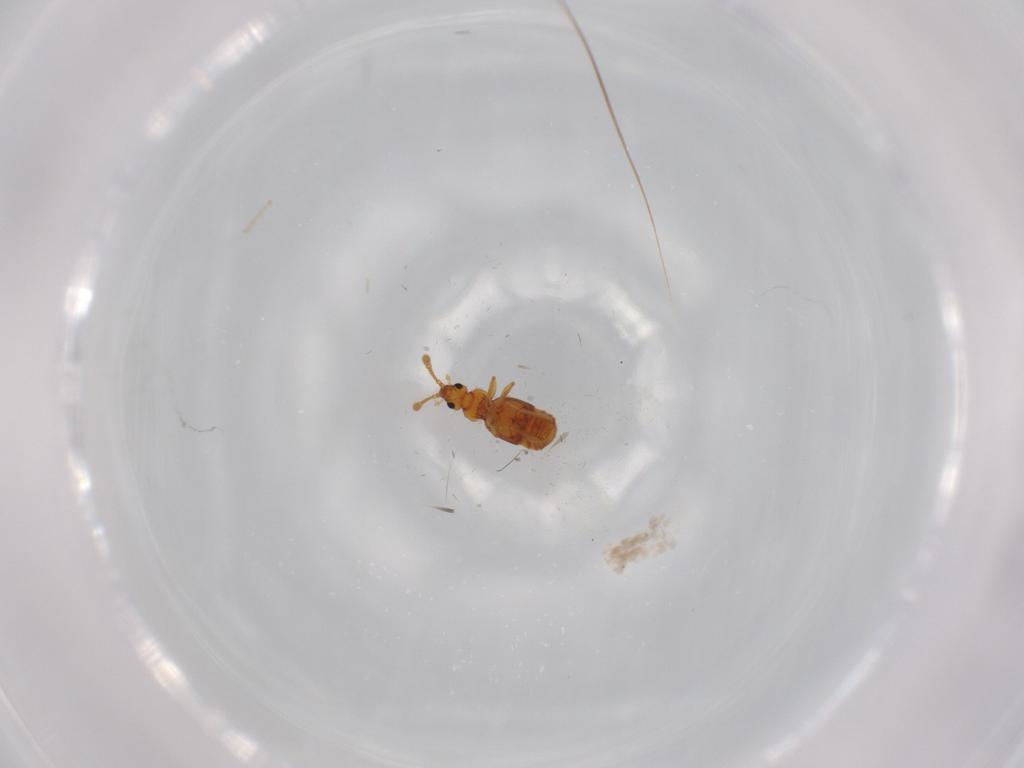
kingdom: Animalia
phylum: Arthropoda
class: Insecta
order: Coleoptera
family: Staphylinidae
